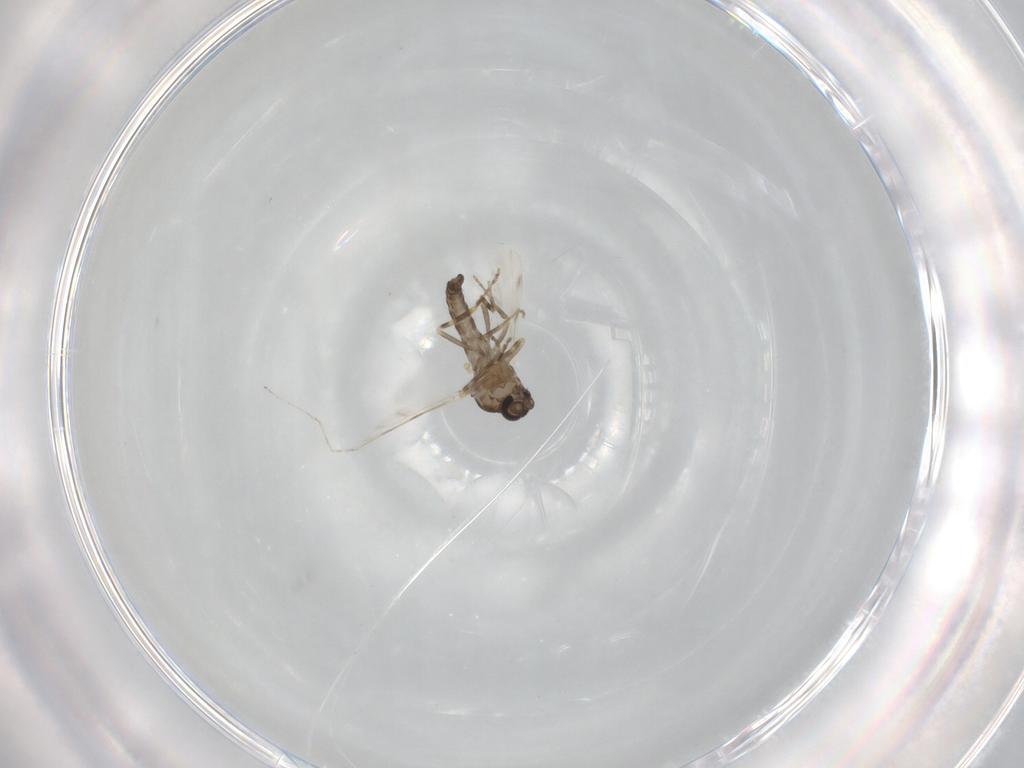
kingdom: Animalia
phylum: Arthropoda
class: Insecta
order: Diptera
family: Ceratopogonidae
